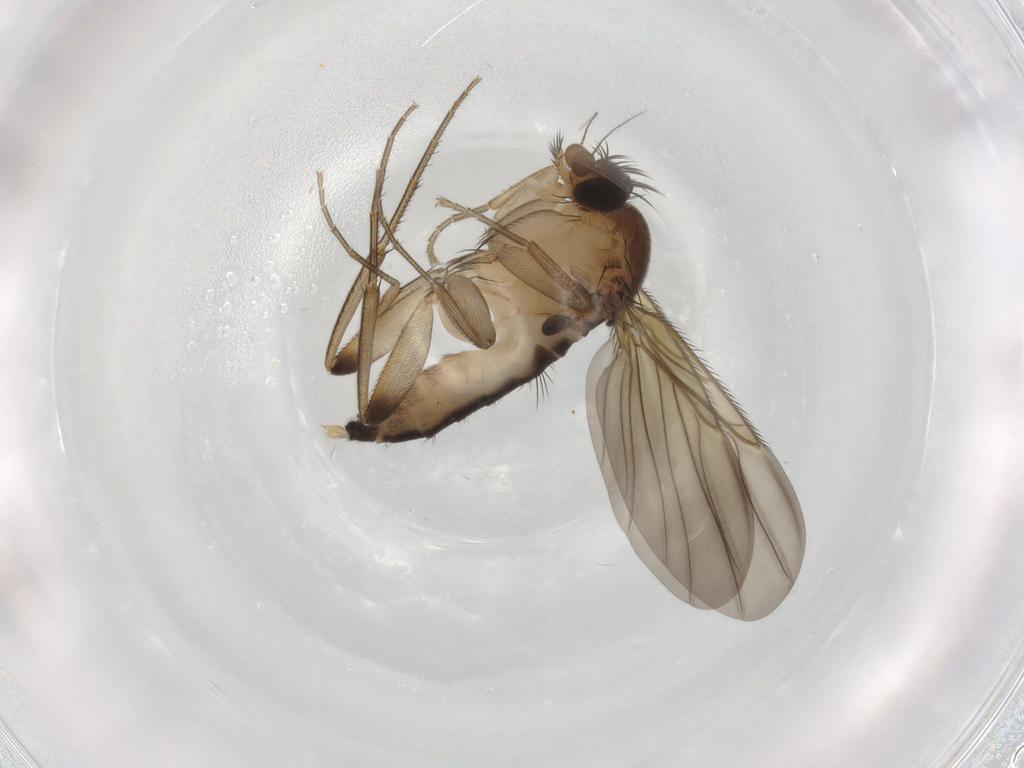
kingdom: Animalia
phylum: Arthropoda
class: Insecta
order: Diptera
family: Phoridae
